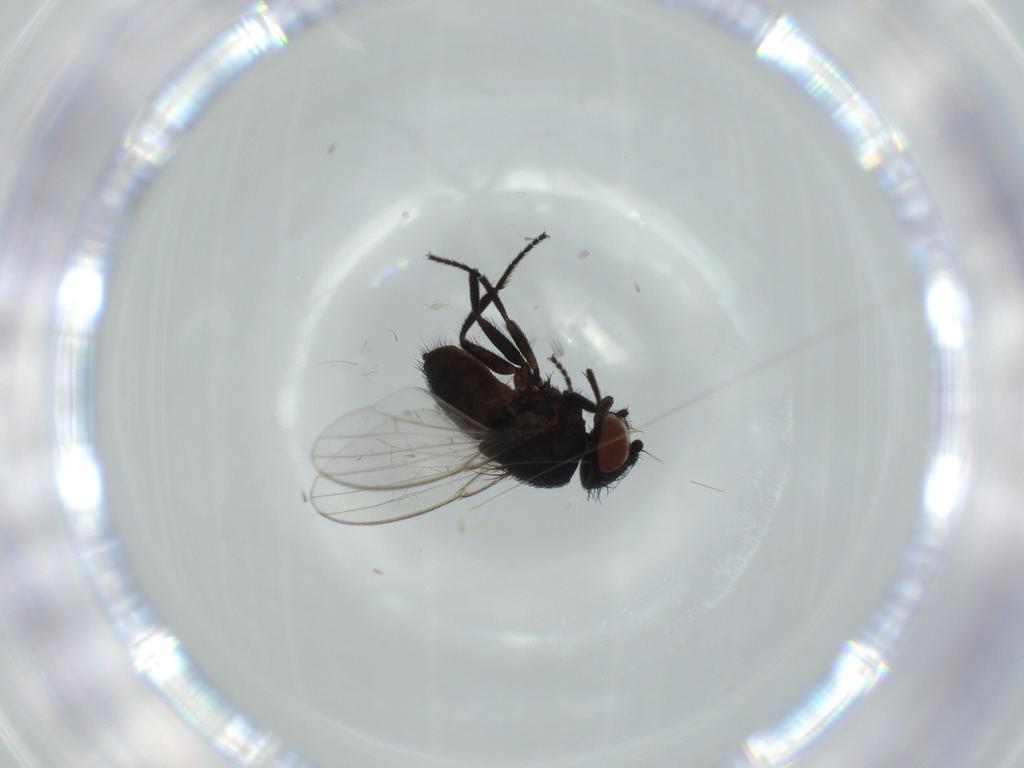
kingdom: Animalia
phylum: Arthropoda
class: Insecta
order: Diptera
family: Milichiidae
